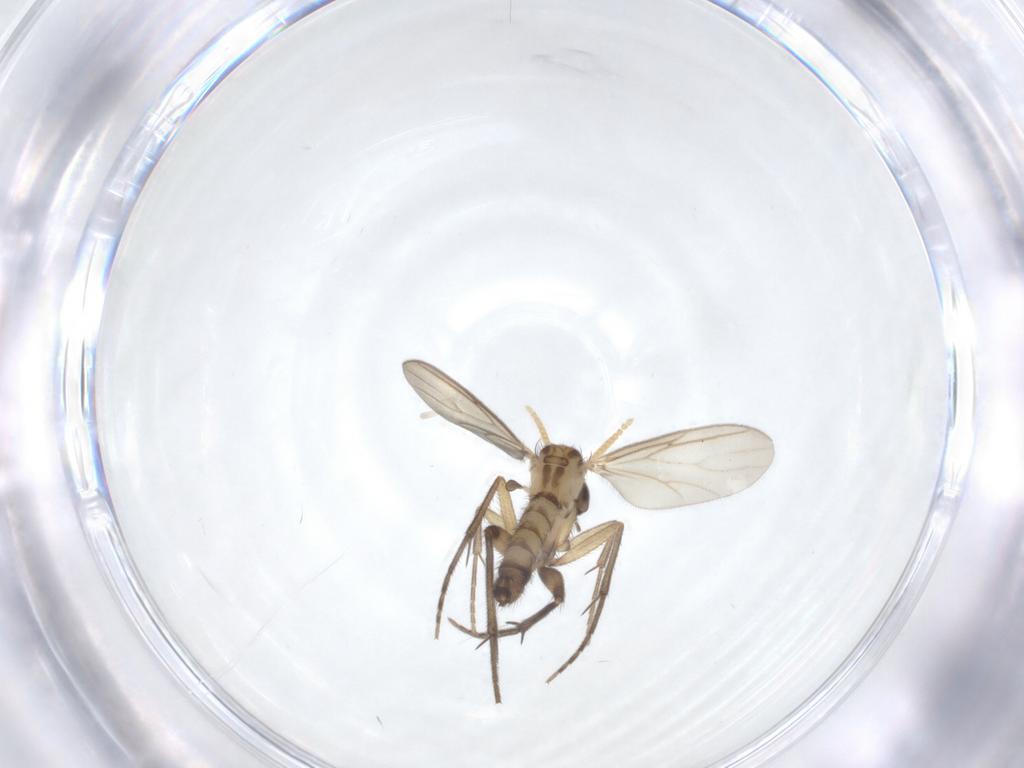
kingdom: Animalia
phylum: Arthropoda
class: Insecta
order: Diptera
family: Mycetophilidae
